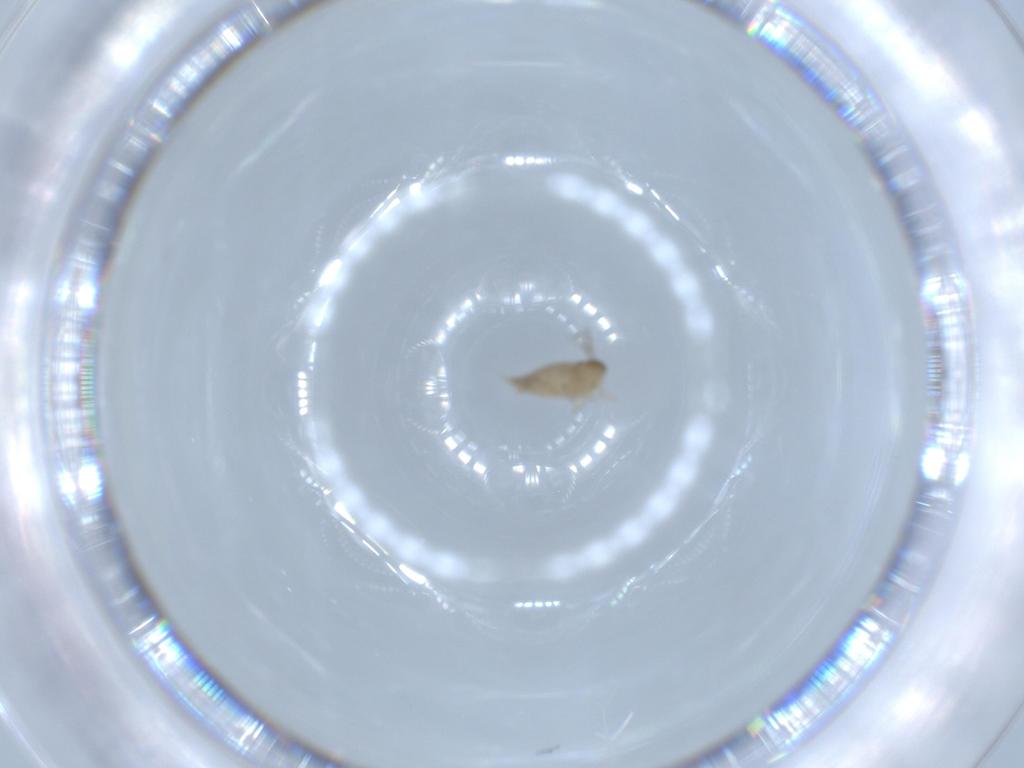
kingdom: Animalia
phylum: Arthropoda
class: Insecta
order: Diptera
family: Cecidomyiidae
